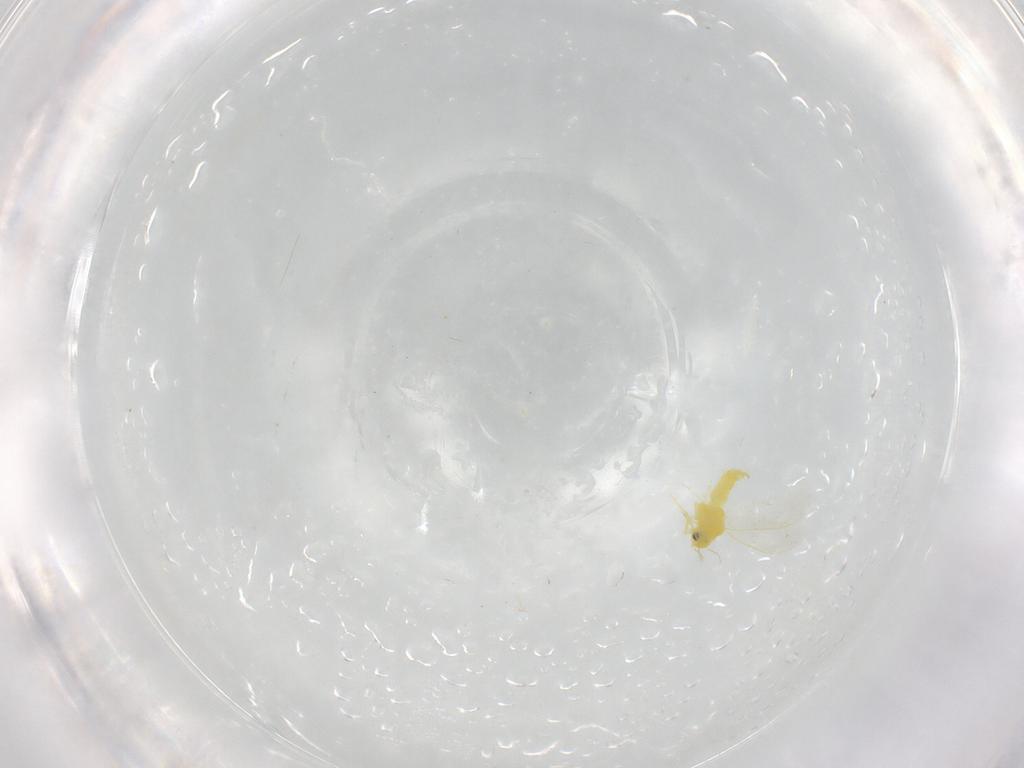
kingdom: Animalia
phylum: Arthropoda
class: Insecta
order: Hemiptera
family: Aleyrodidae
